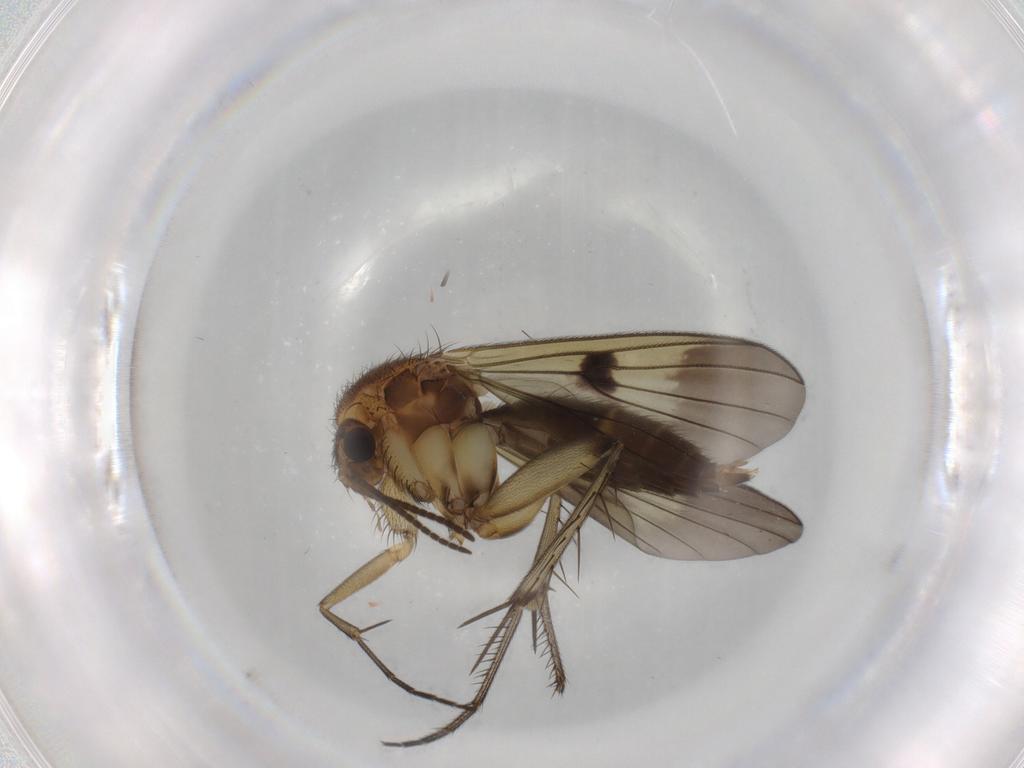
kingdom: Animalia
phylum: Arthropoda
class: Insecta
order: Diptera
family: Mycetophilidae
